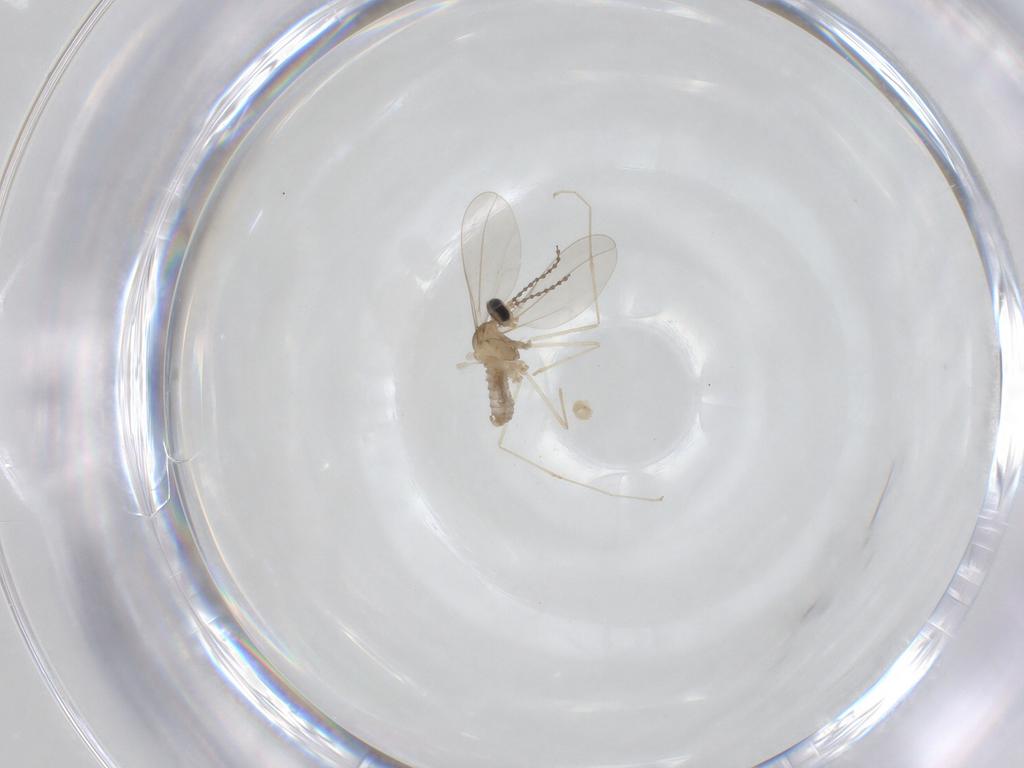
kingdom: Animalia
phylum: Arthropoda
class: Insecta
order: Diptera
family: Cecidomyiidae
